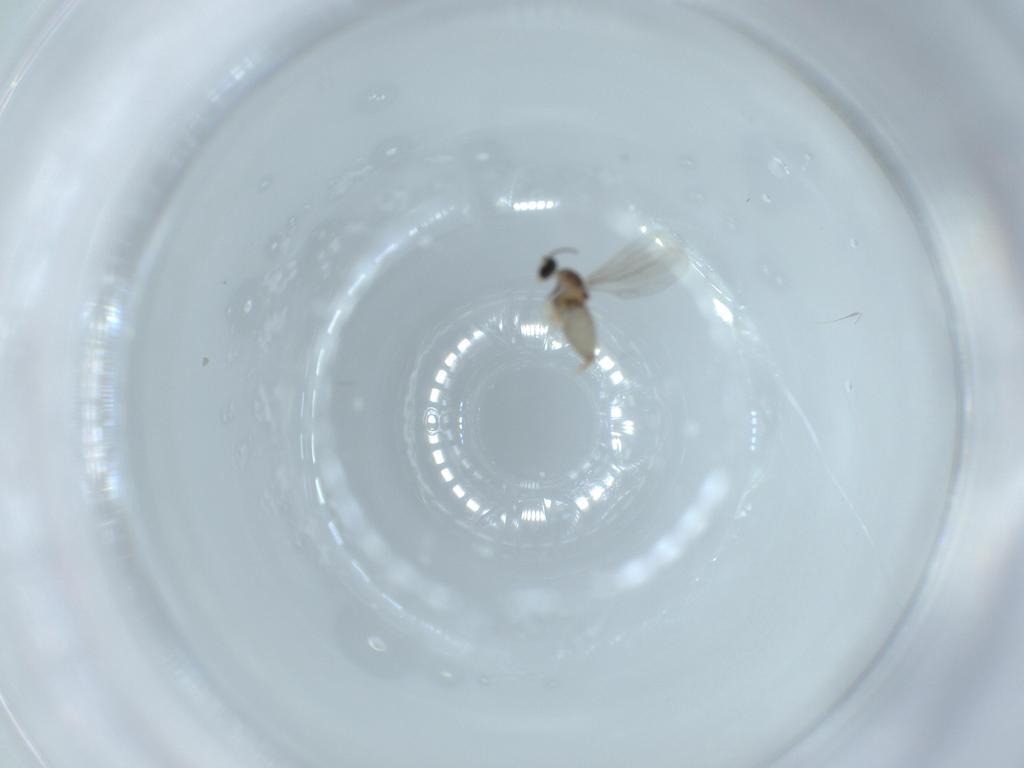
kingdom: Animalia
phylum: Arthropoda
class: Insecta
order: Diptera
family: Cecidomyiidae
